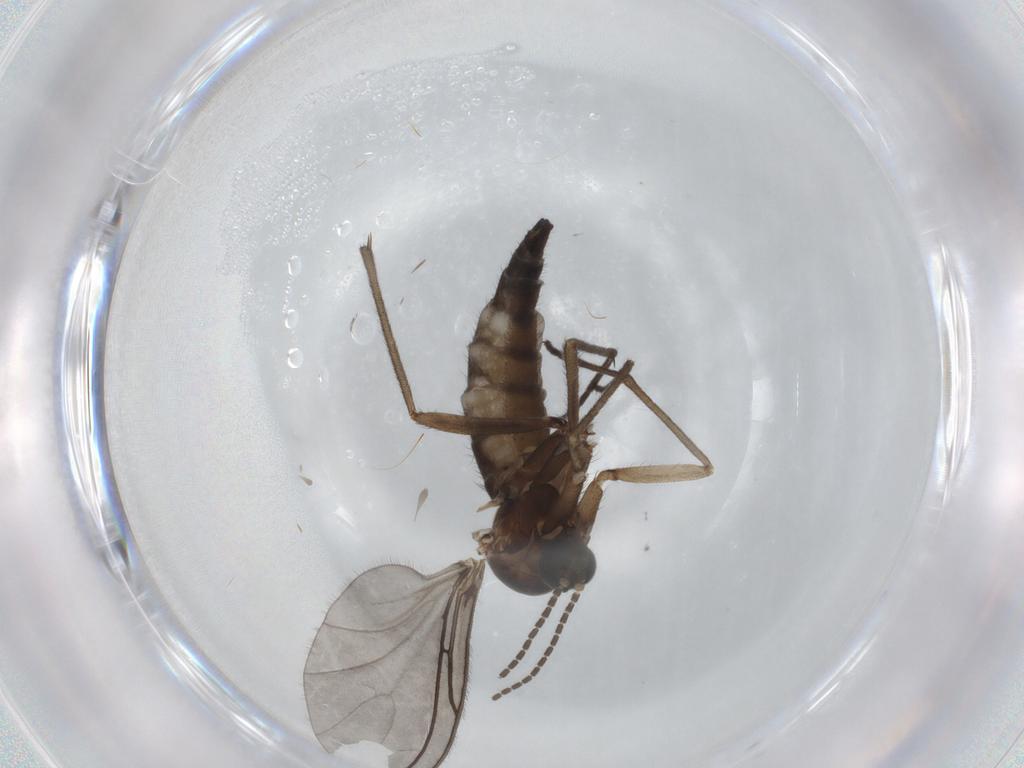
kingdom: Animalia
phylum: Arthropoda
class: Insecta
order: Diptera
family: Sciaridae
